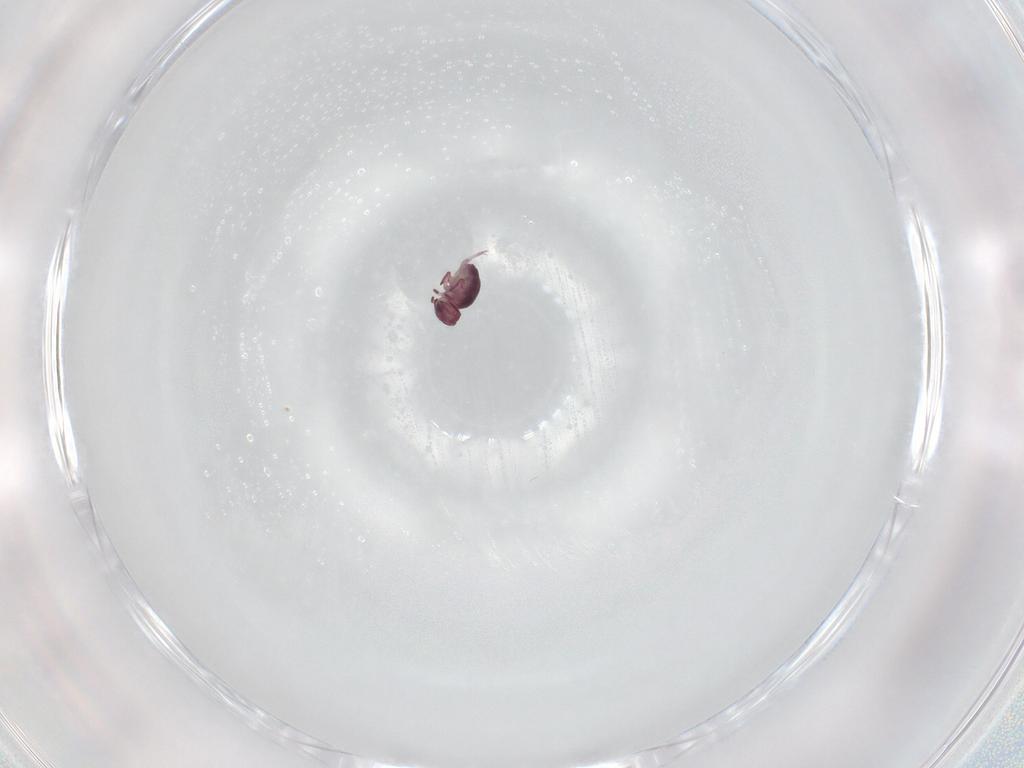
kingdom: Animalia
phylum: Arthropoda
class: Collembola
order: Symphypleona
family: Sminthurididae
